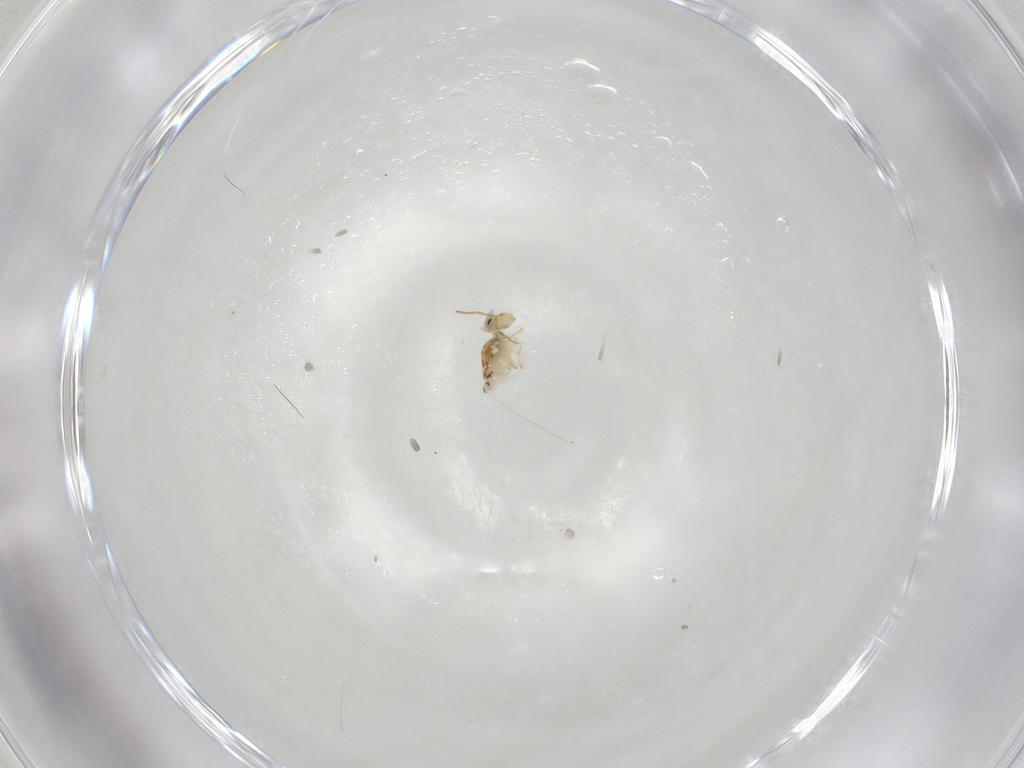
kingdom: Animalia
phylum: Arthropoda
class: Collembola
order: Symphypleona
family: Bourletiellidae
